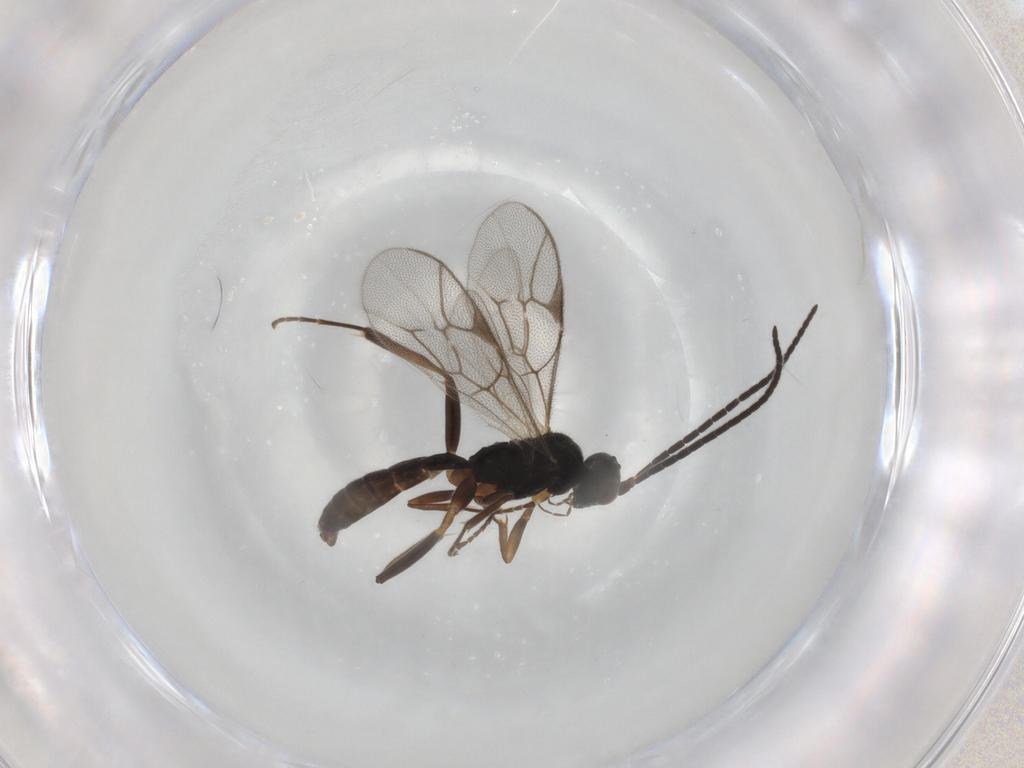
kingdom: Animalia
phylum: Arthropoda
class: Insecta
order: Hymenoptera
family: Ichneumonidae
